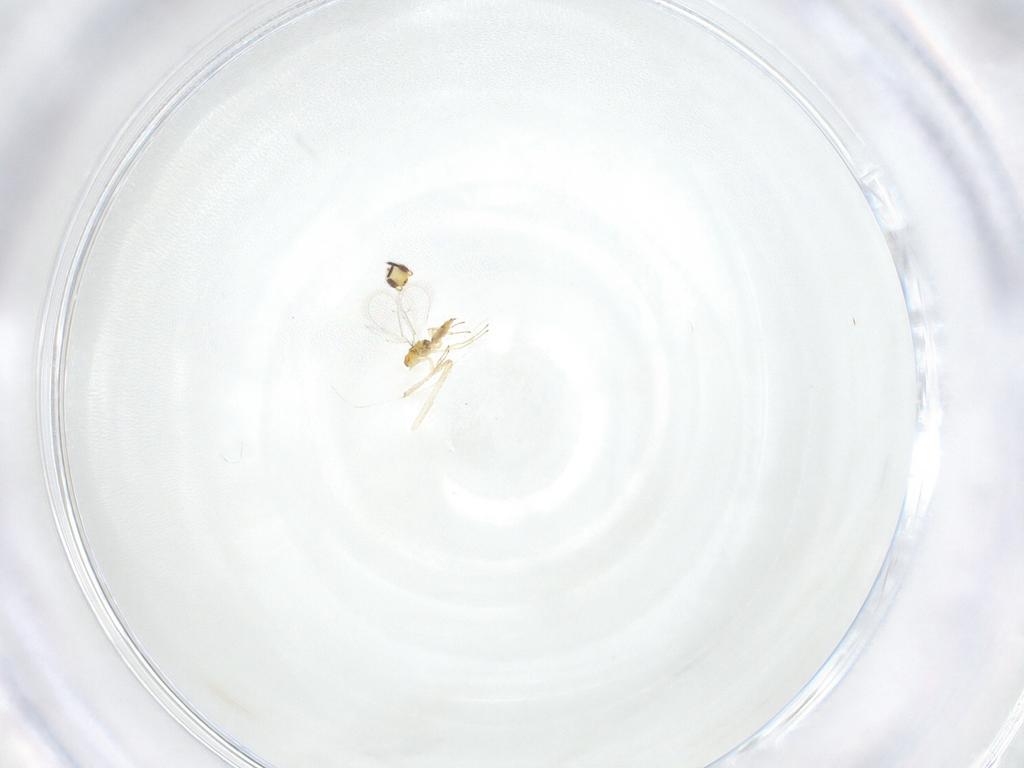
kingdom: Animalia
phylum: Arthropoda
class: Insecta
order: Hymenoptera
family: Eulophidae
